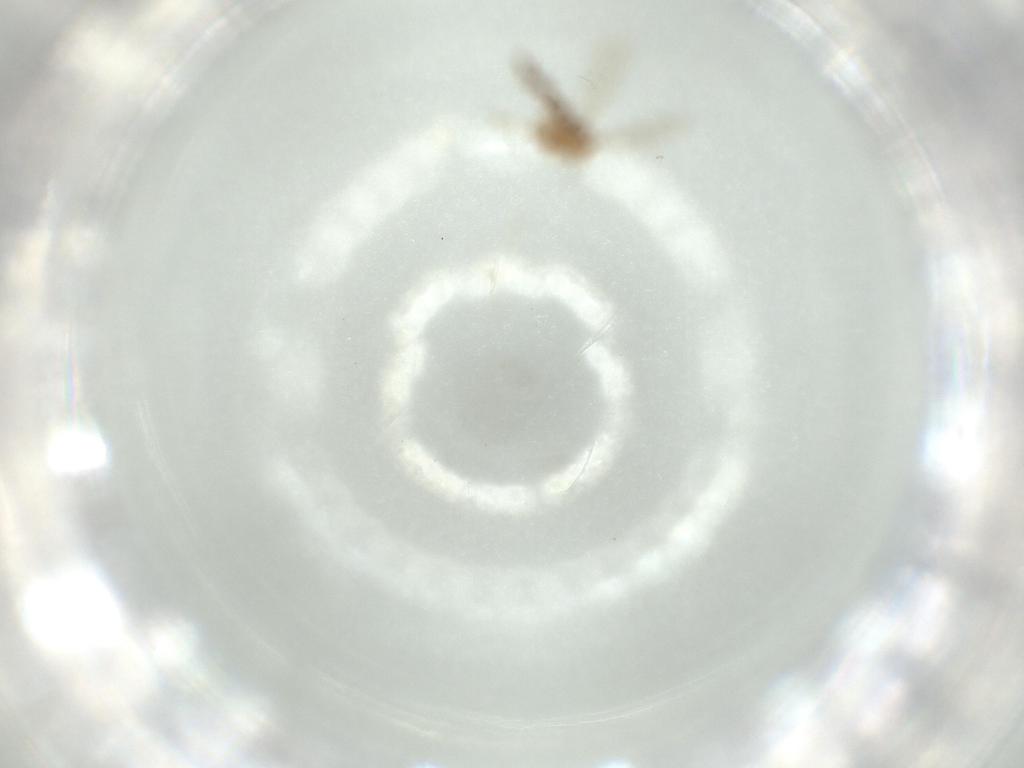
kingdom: Animalia
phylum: Arthropoda
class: Insecta
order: Diptera
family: Chironomidae
